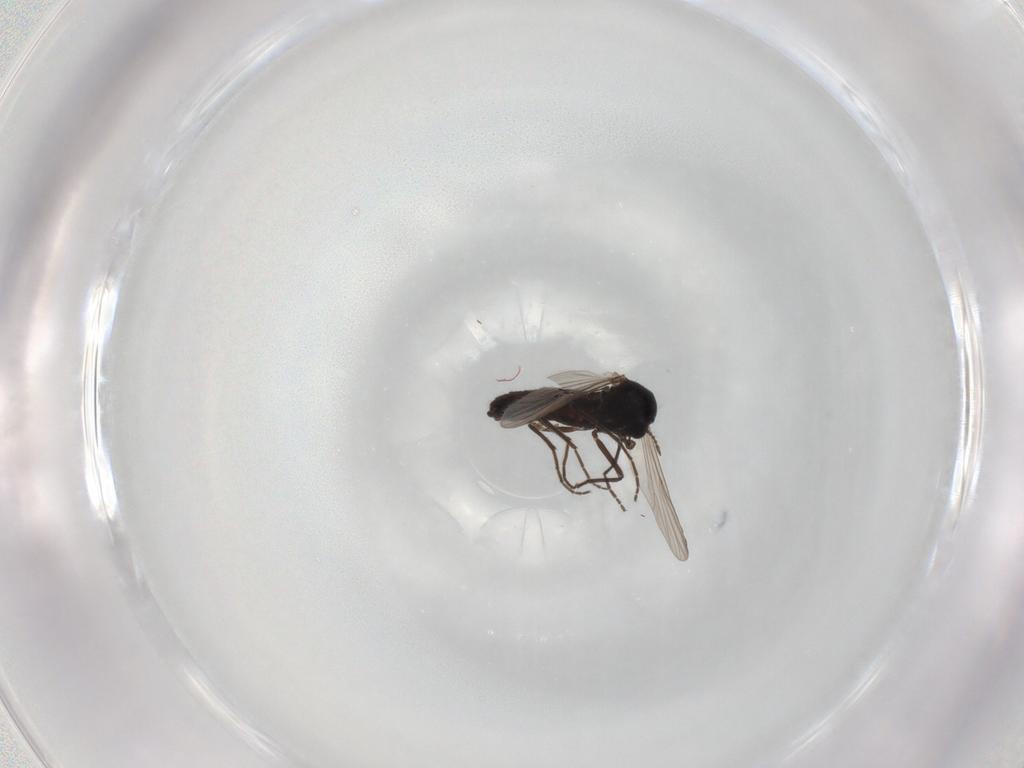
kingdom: Animalia
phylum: Arthropoda
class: Insecta
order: Diptera
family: Chironomidae
